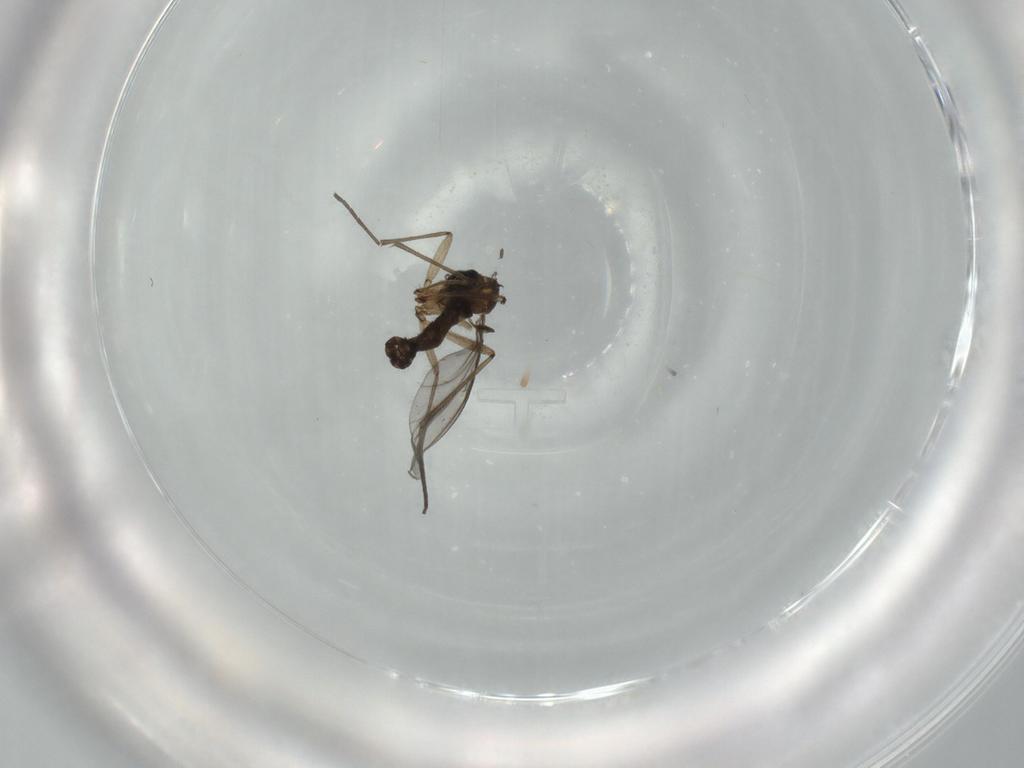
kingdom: Animalia
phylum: Arthropoda
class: Insecta
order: Diptera
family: Sciaridae
